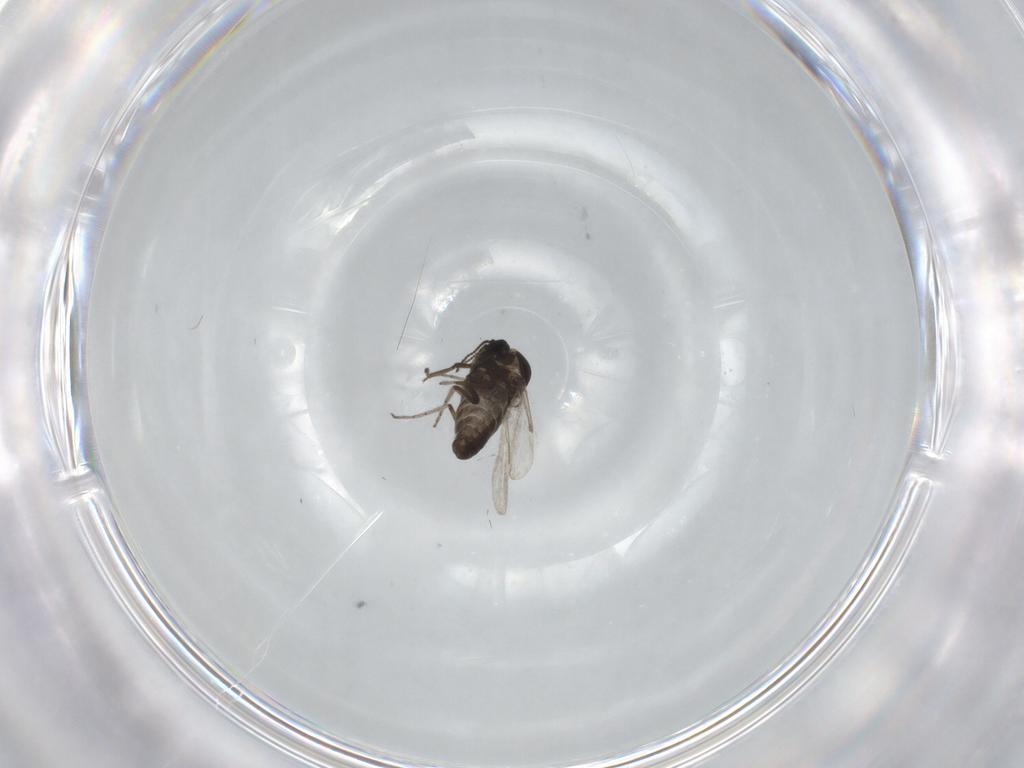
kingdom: Animalia
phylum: Arthropoda
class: Insecta
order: Diptera
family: Ceratopogonidae
